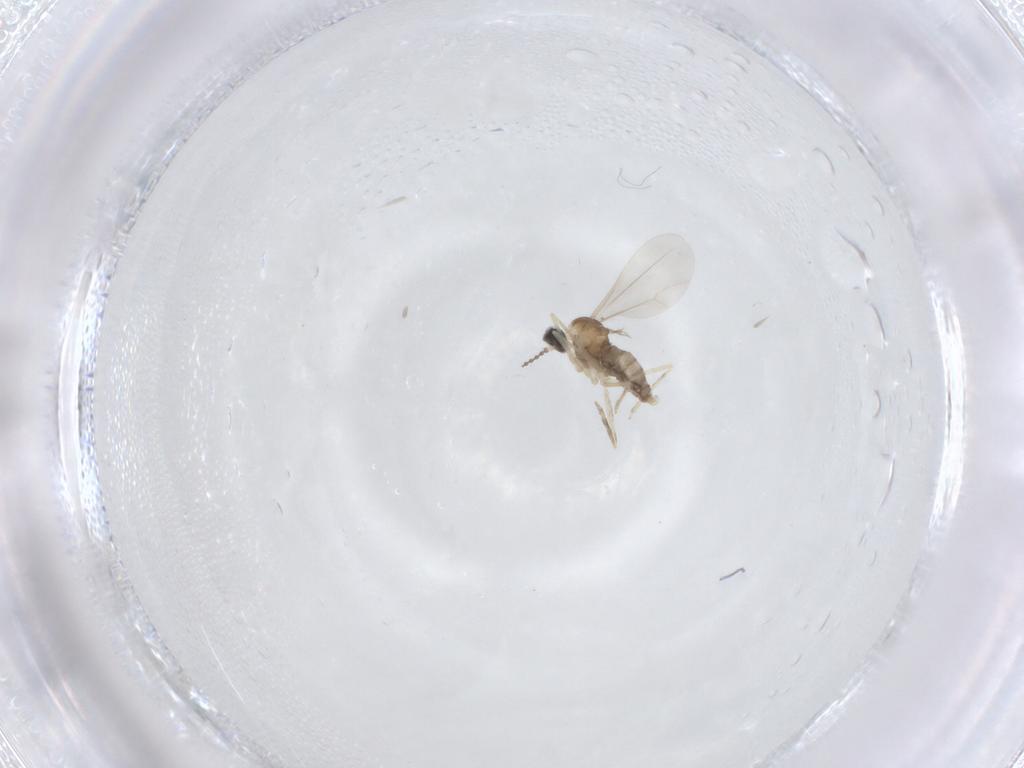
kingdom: Animalia
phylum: Arthropoda
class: Insecta
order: Diptera
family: Cecidomyiidae
